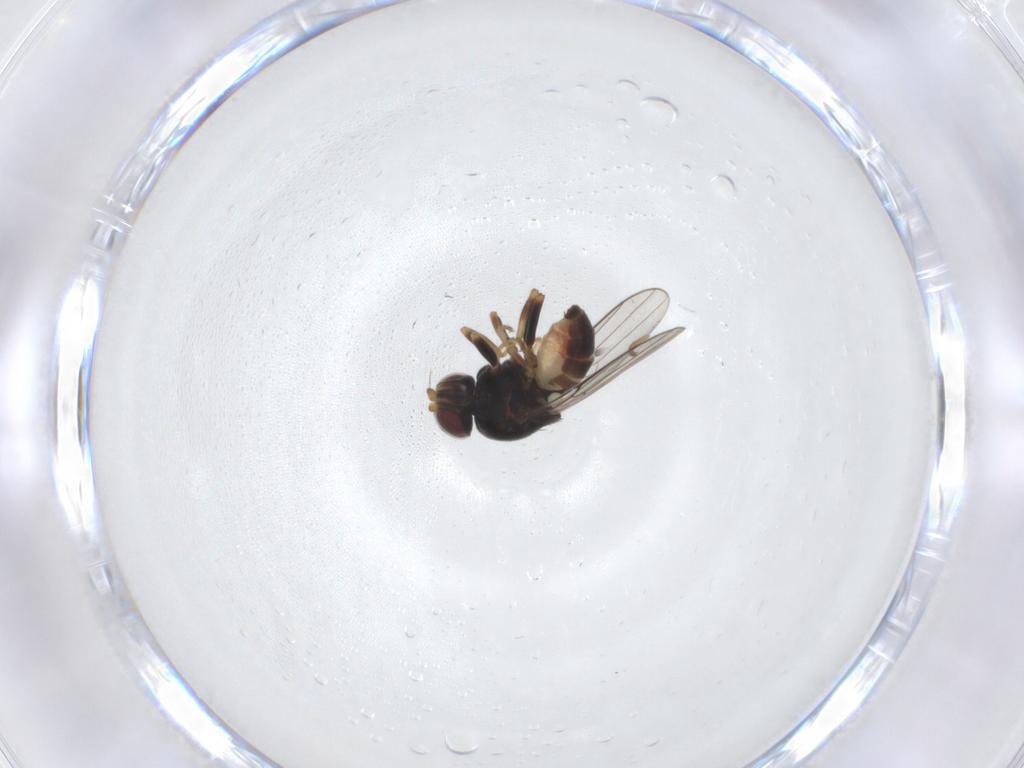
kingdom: Animalia
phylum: Arthropoda
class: Insecta
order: Diptera
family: Chloropidae
